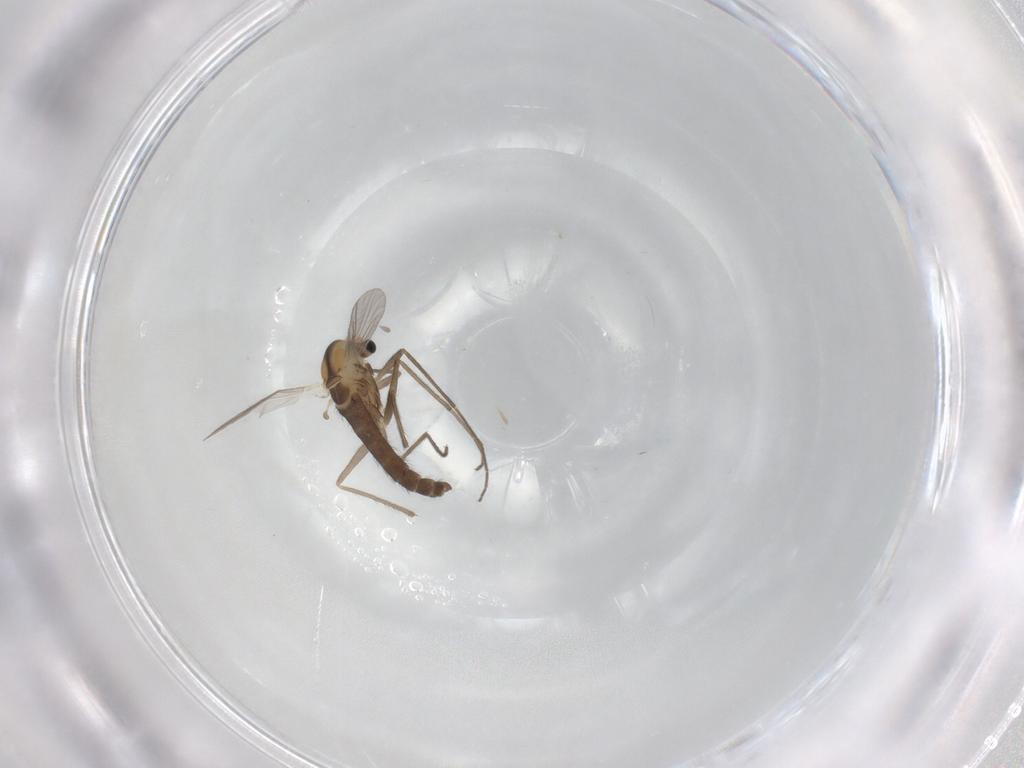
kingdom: Animalia
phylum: Arthropoda
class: Insecta
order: Diptera
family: Chironomidae
